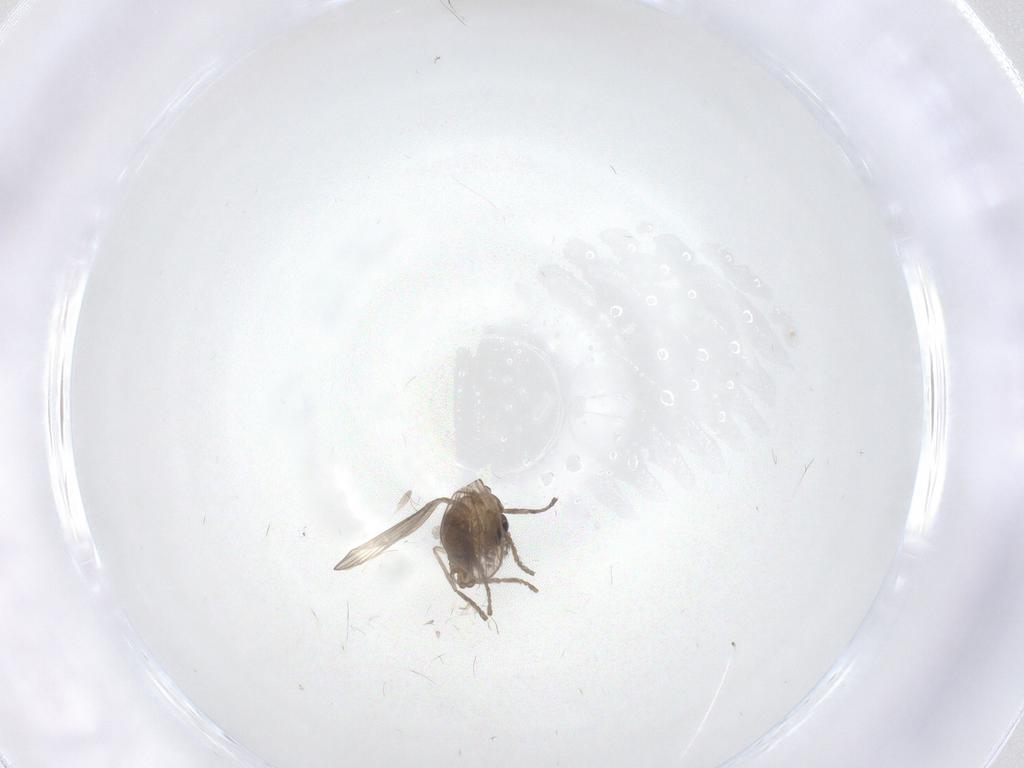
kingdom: Animalia
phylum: Arthropoda
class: Insecta
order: Diptera
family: Psychodidae
